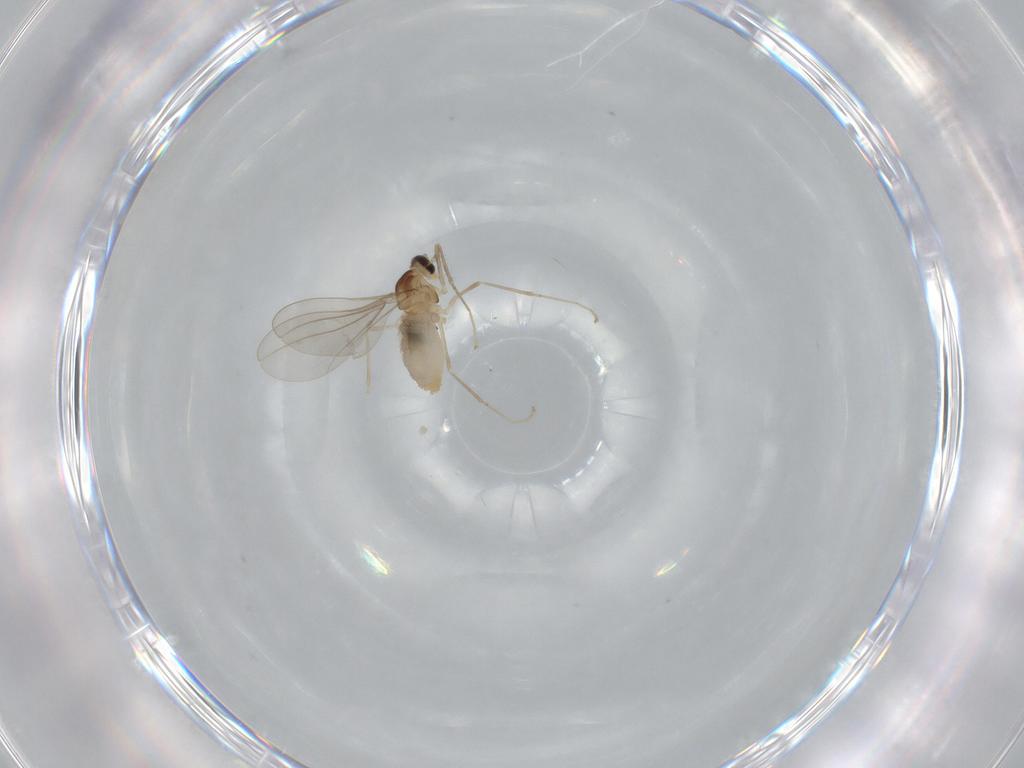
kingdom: Animalia
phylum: Arthropoda
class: Insecta
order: Diptera
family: Cecidomyiidae
